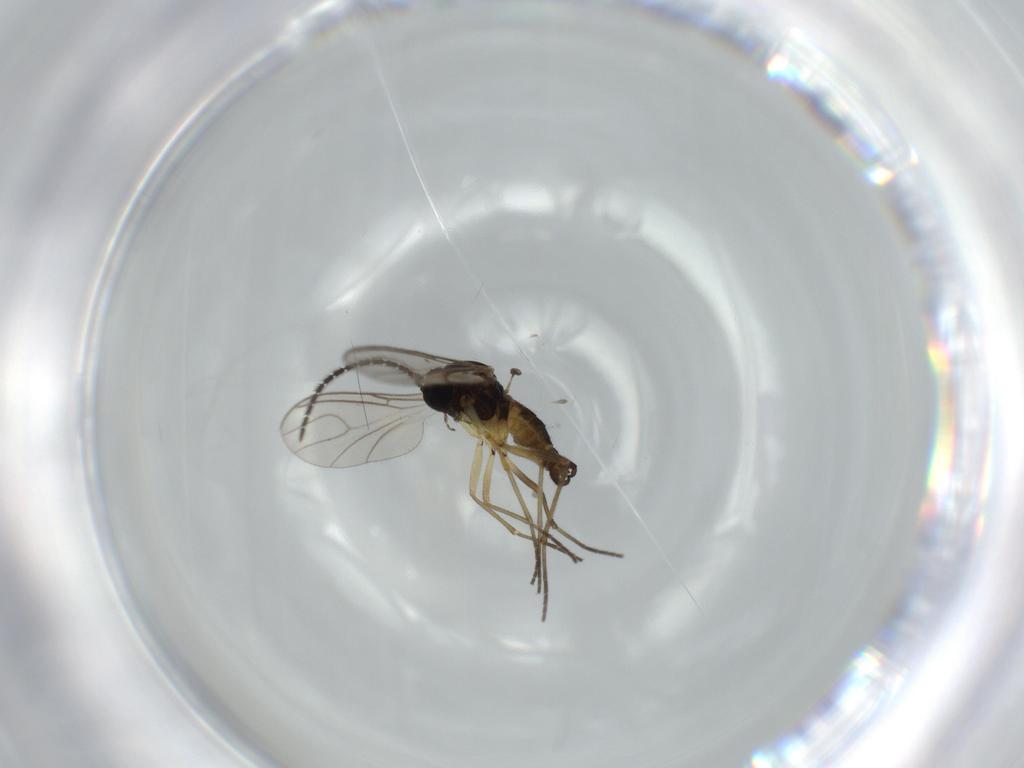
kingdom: Animalia
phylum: Arthropoda
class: Insecta
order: Diptera
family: Sciaridae
